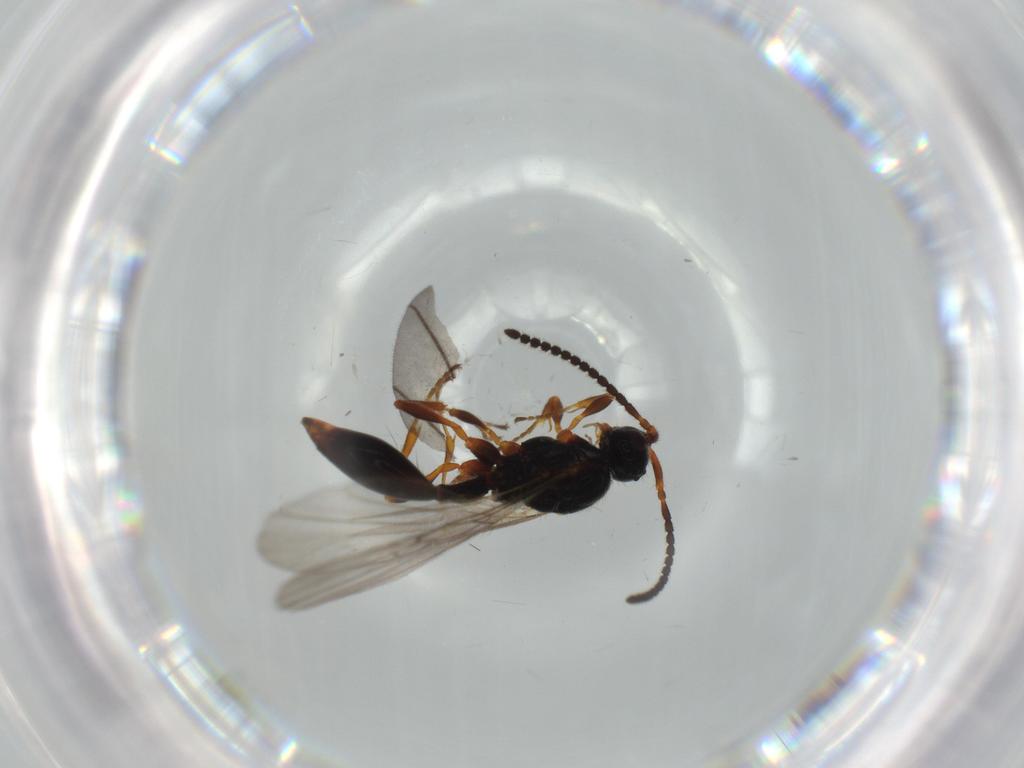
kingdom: Animalia
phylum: Arthropoda
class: Insecta
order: Hymenoptera
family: Diapriidae
